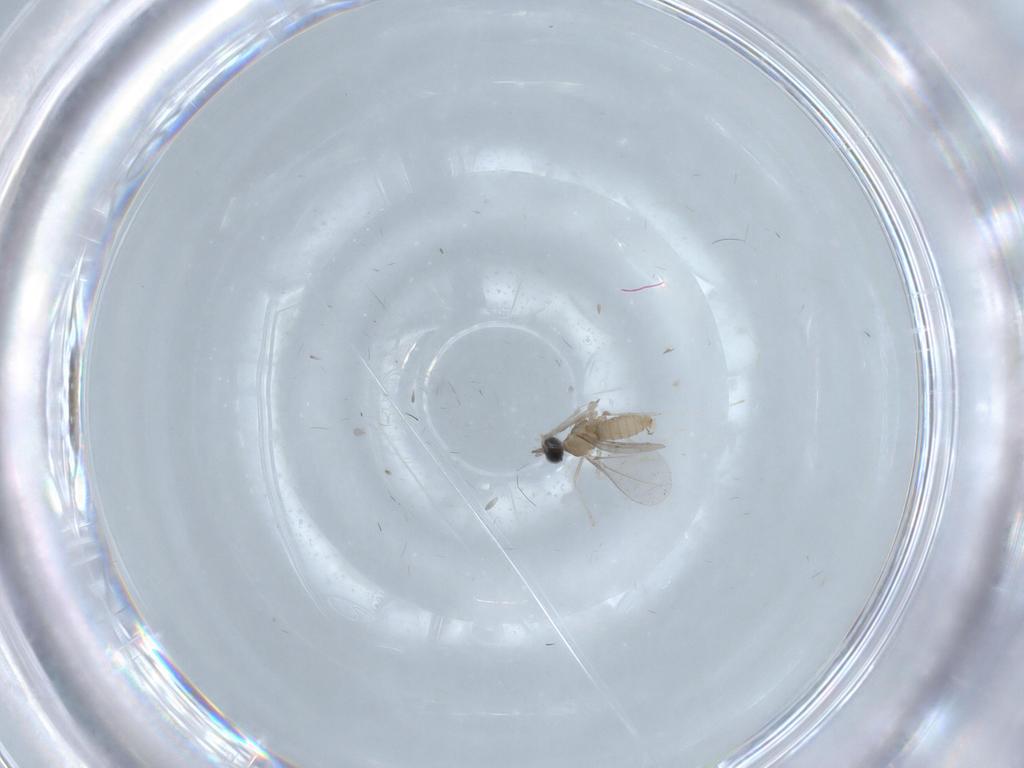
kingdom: Animalia
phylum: Arthropoda
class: Insecta
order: Diptera
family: Cecidomyiidae
